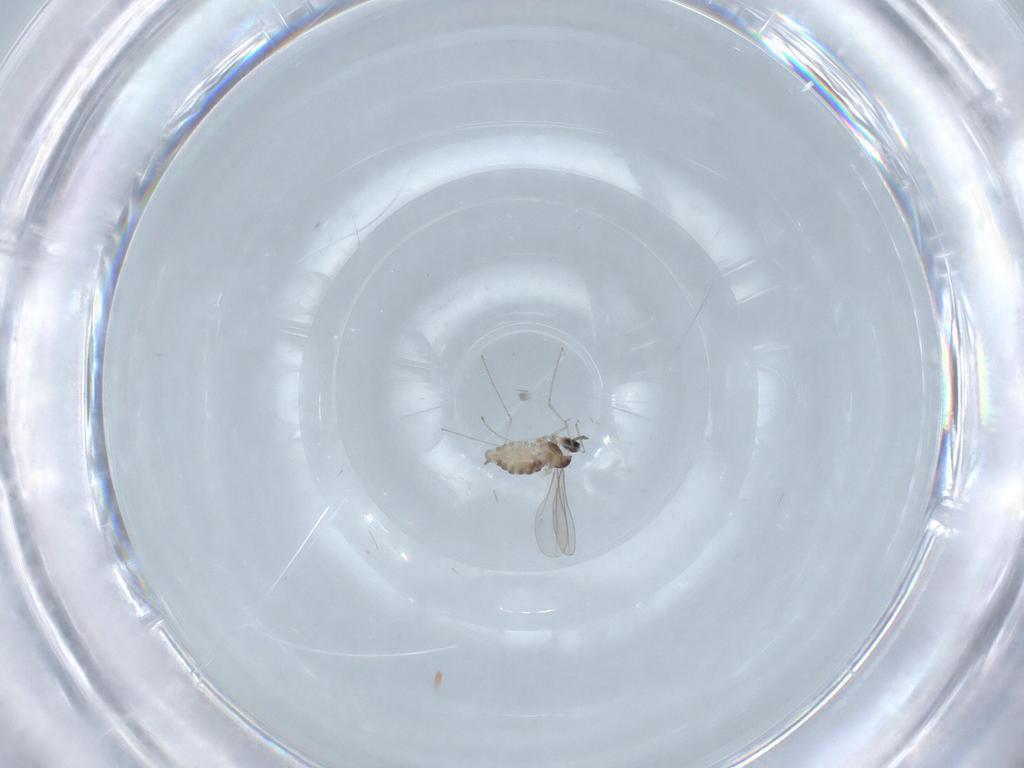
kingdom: Animalia
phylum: Arthropoda
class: Insecta
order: Diptera
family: Cecidomyiidae
